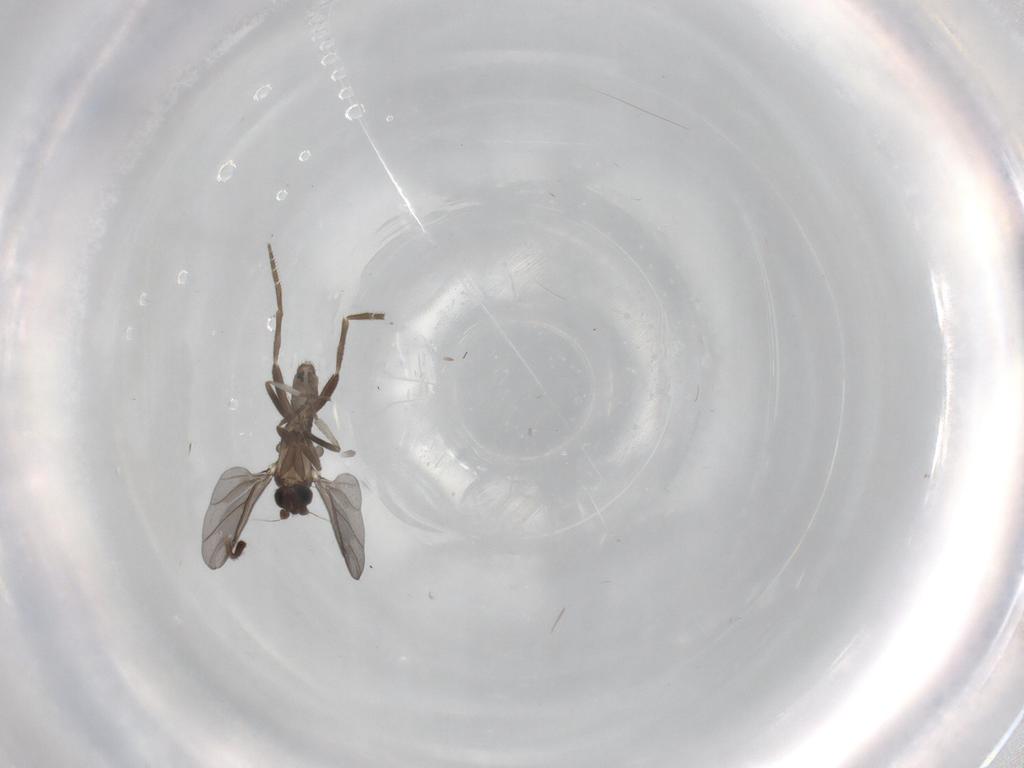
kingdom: Animalia
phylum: Arthropoda
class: Insecta
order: Diptera
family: Phoridae
